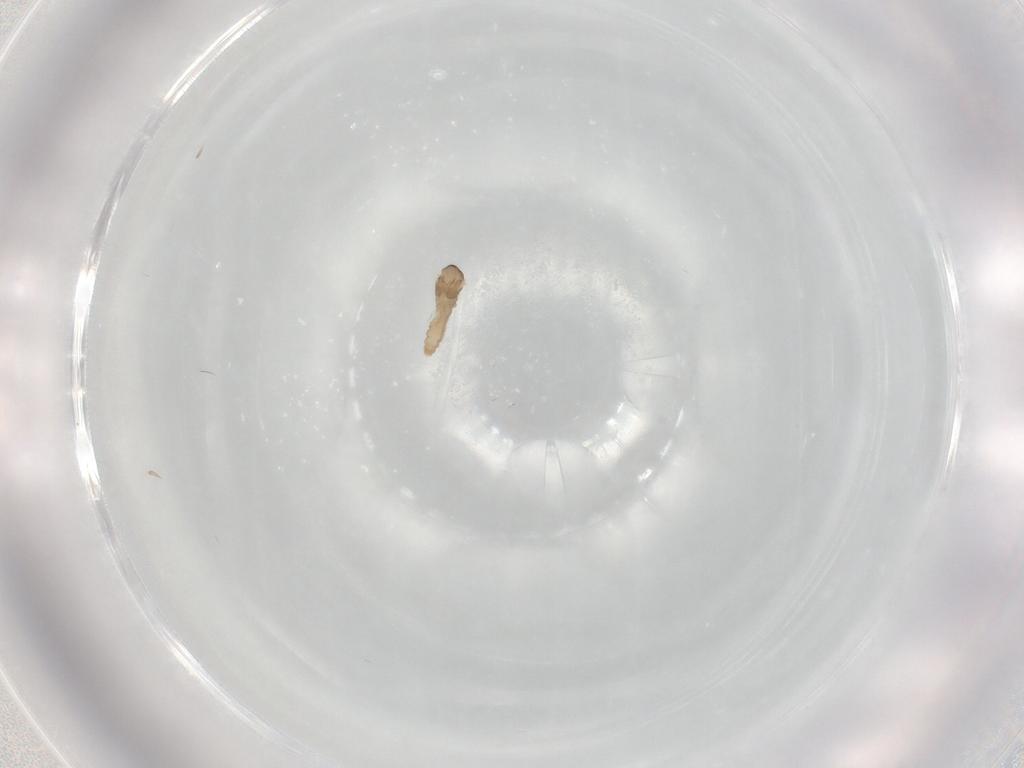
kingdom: Animalia
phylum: Arthropoda
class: Insecta
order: Diptera
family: Cecidomyiidae
